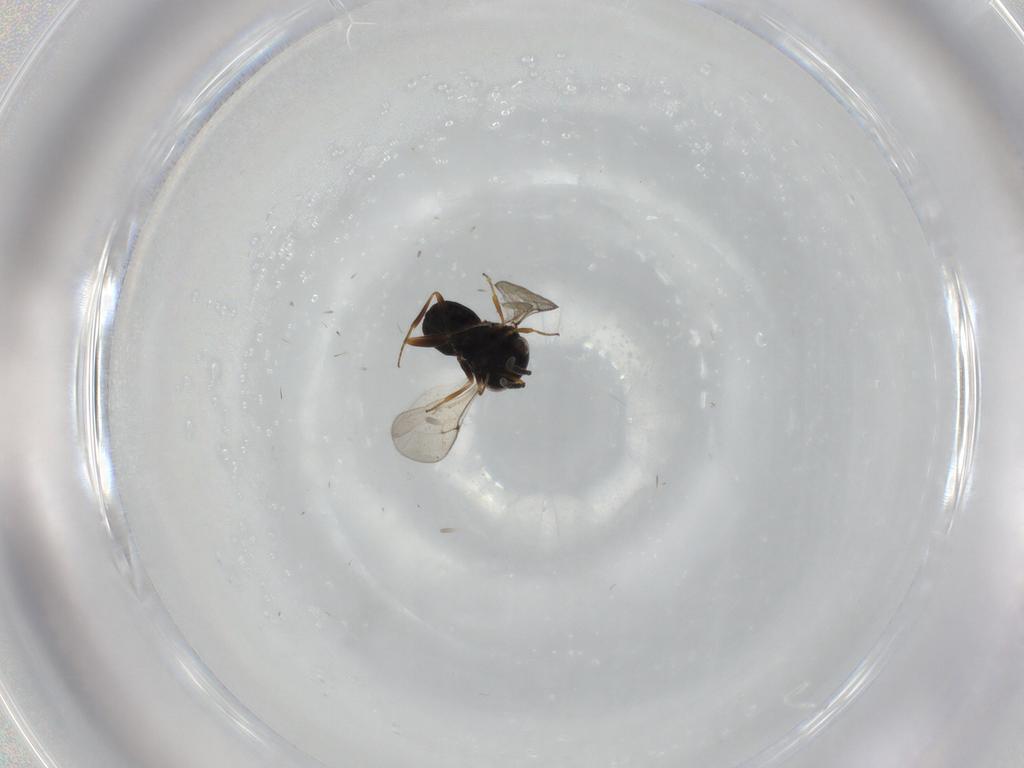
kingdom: Animalia
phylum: Arthropoda
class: Insecta
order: Hymenoptera
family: Scelionidae
